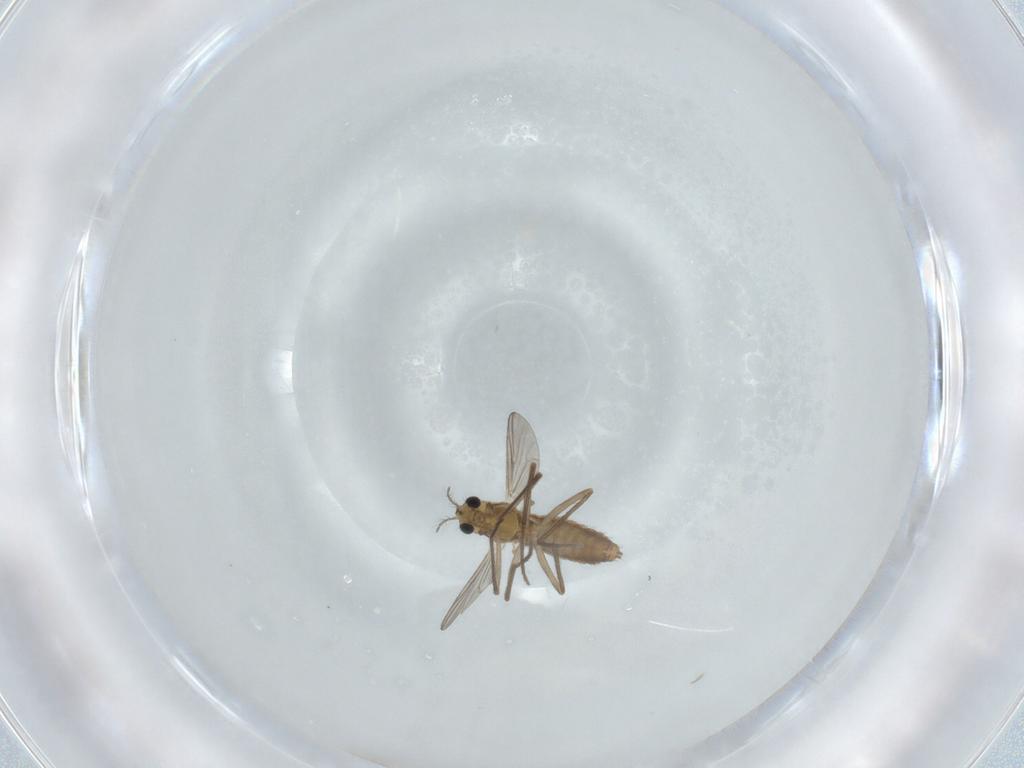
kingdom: Animalia
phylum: Arthropoda
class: Insecta
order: Diptera
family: Chironomidae
